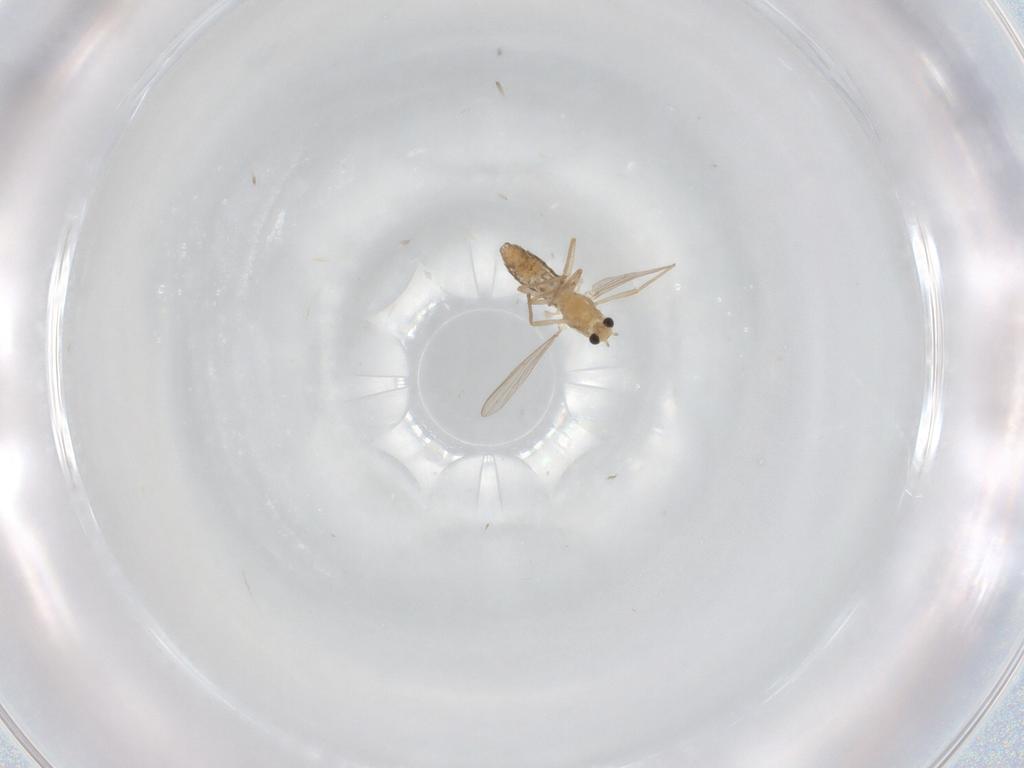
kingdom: Animalia
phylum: Arthropoda
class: Insecta
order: Diptera
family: Chironomidae
